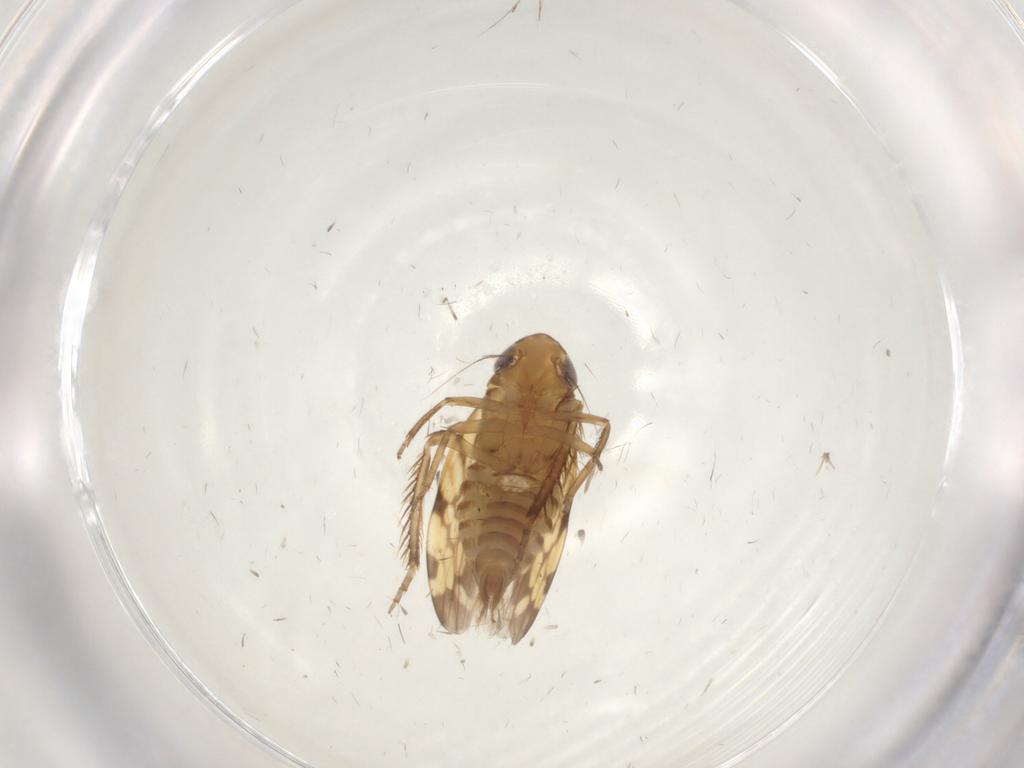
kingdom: Animalia
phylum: Arthropoda
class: Insecta
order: Hemiptera
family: Cicadellidae
